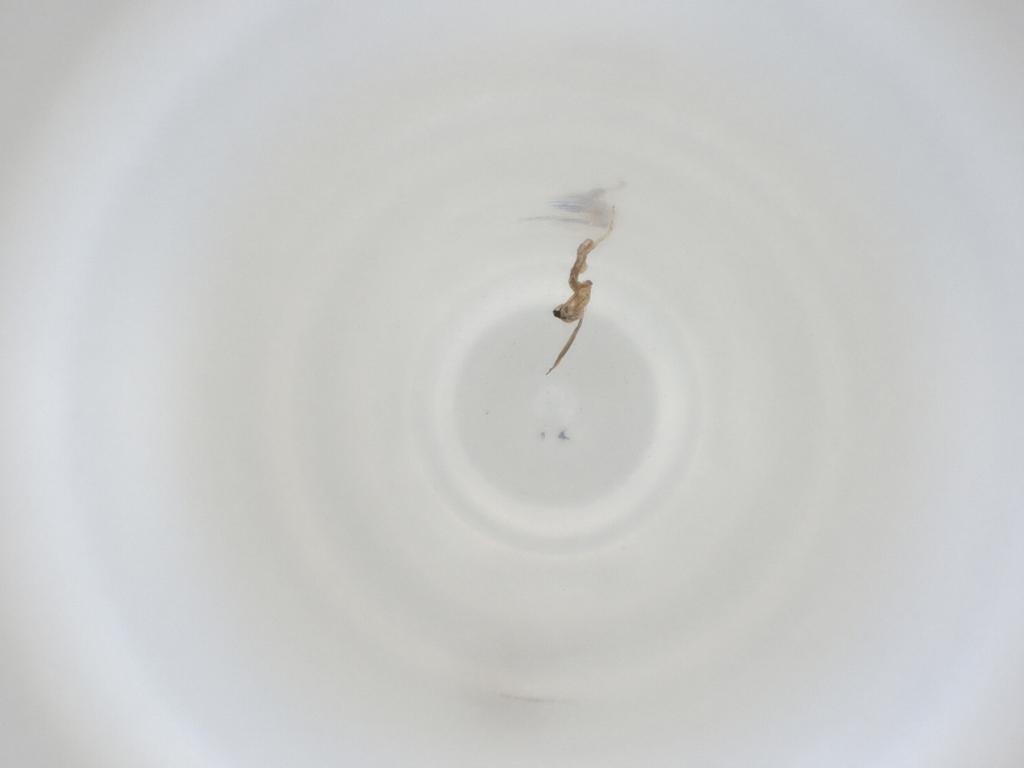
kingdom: Animalia
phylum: Arthropoda
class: Insecta
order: Diptera
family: Cecidomyiidae
